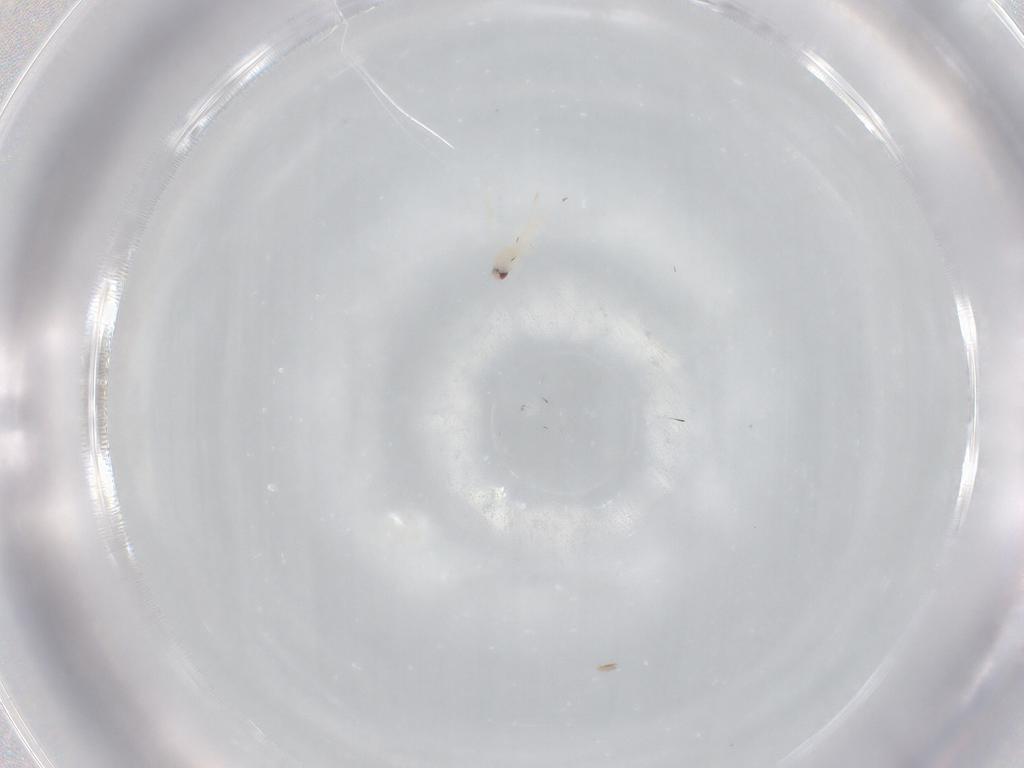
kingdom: Animalia
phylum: Arthropoda
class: Insecta
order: Hemiptera
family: Aleyrodidae
